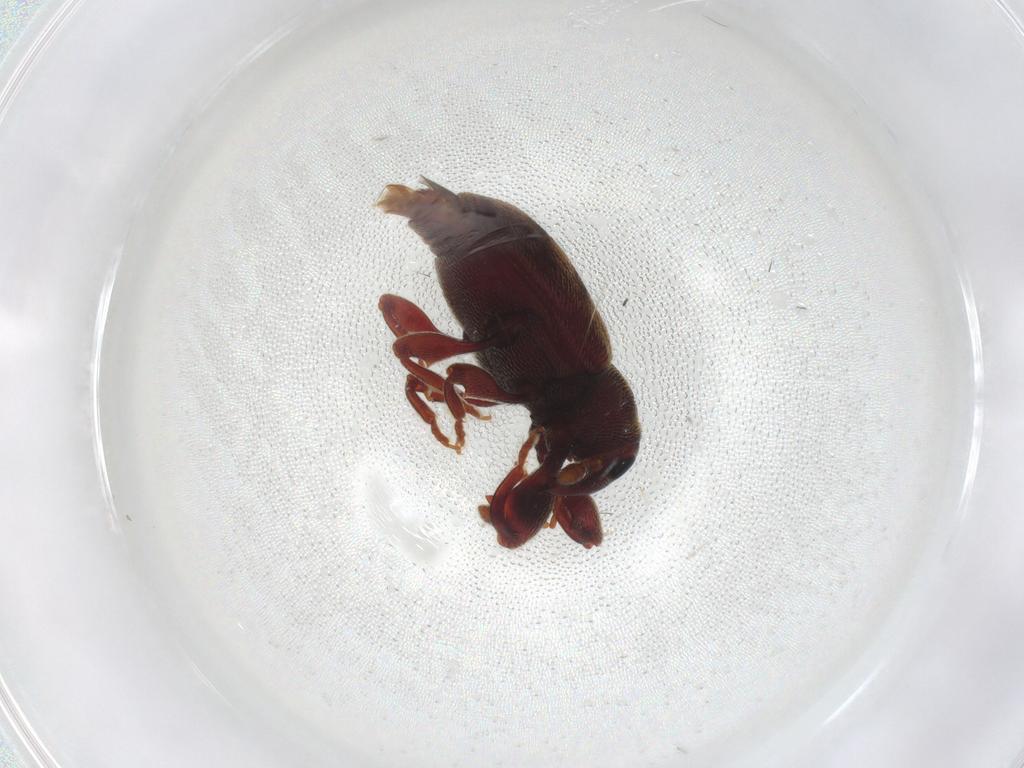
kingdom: Animalia
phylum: Arthropoda
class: Insecta
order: Coleoptera
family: Curculionidae
